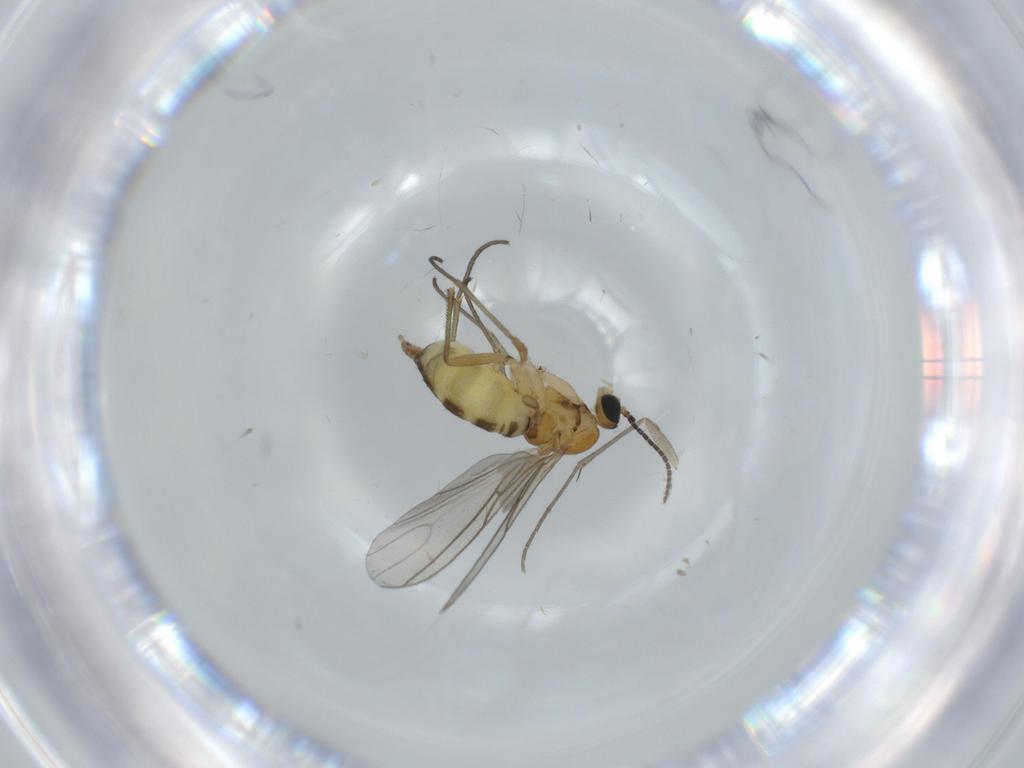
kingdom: Animalia
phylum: Arthropoda
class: Insecta
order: Diptera
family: Mycetophilidae
